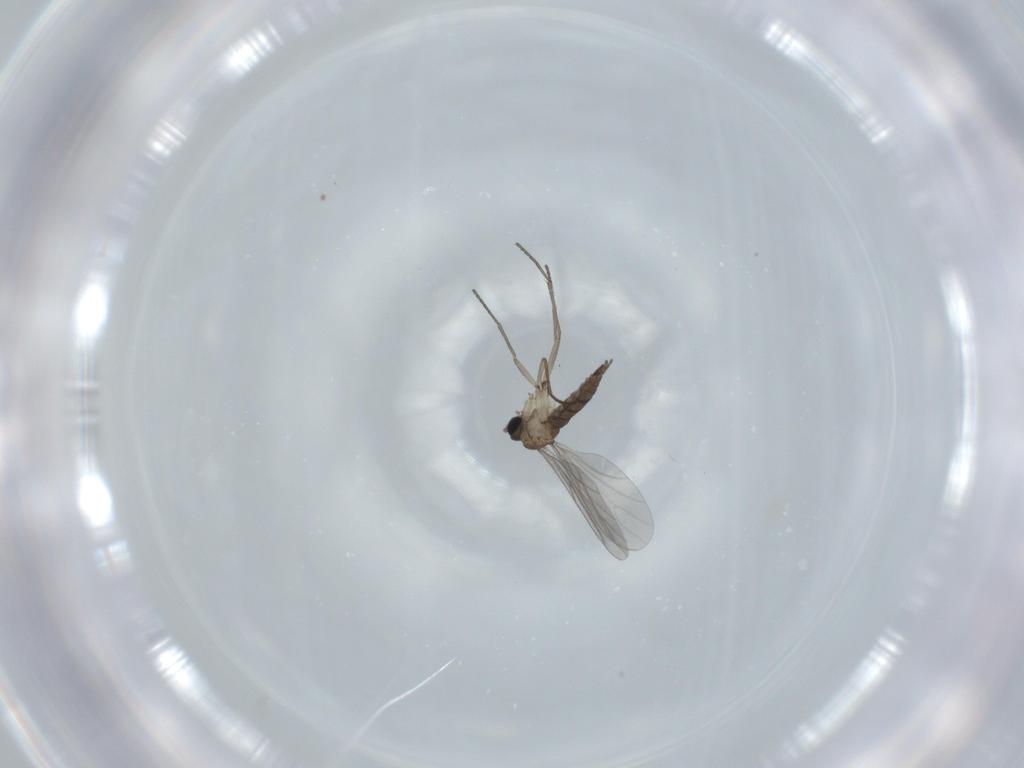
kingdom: Animalia
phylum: Arthropoda
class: Insecta
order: Diptera
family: Sciaridae
